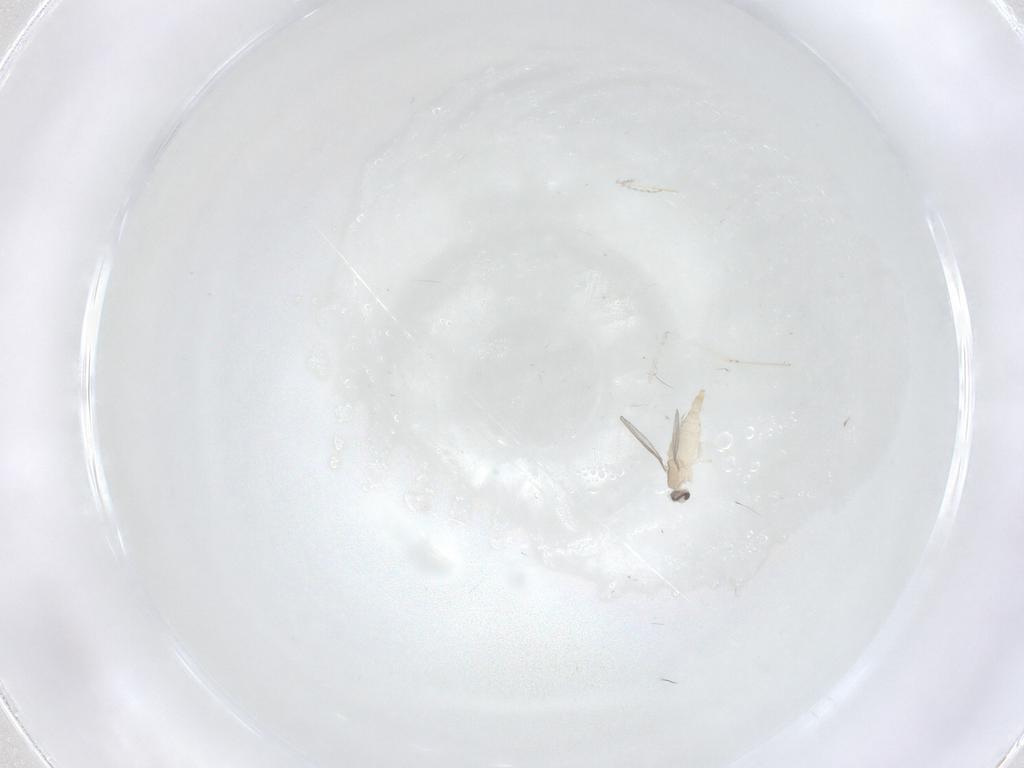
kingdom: Animalia
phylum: Arthropoda
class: Insecta
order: Diptera
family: Cecidomyiidae
